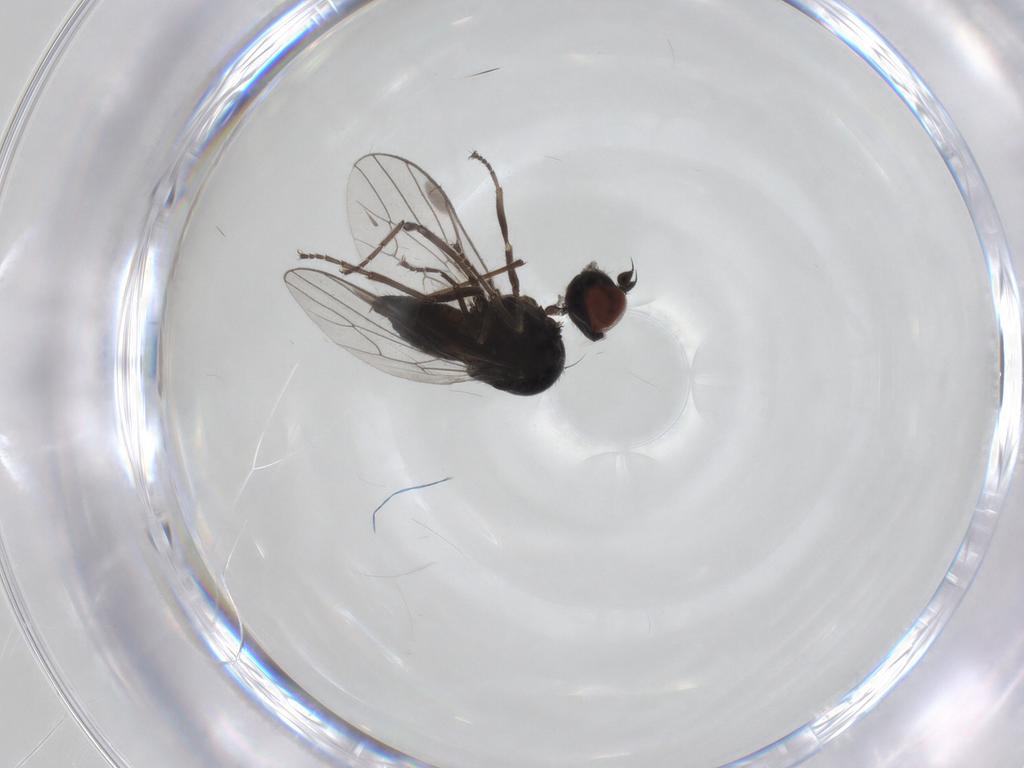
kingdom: Animalia
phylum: Arthropoda
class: Insecta
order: Diptera
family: Hybotidae
